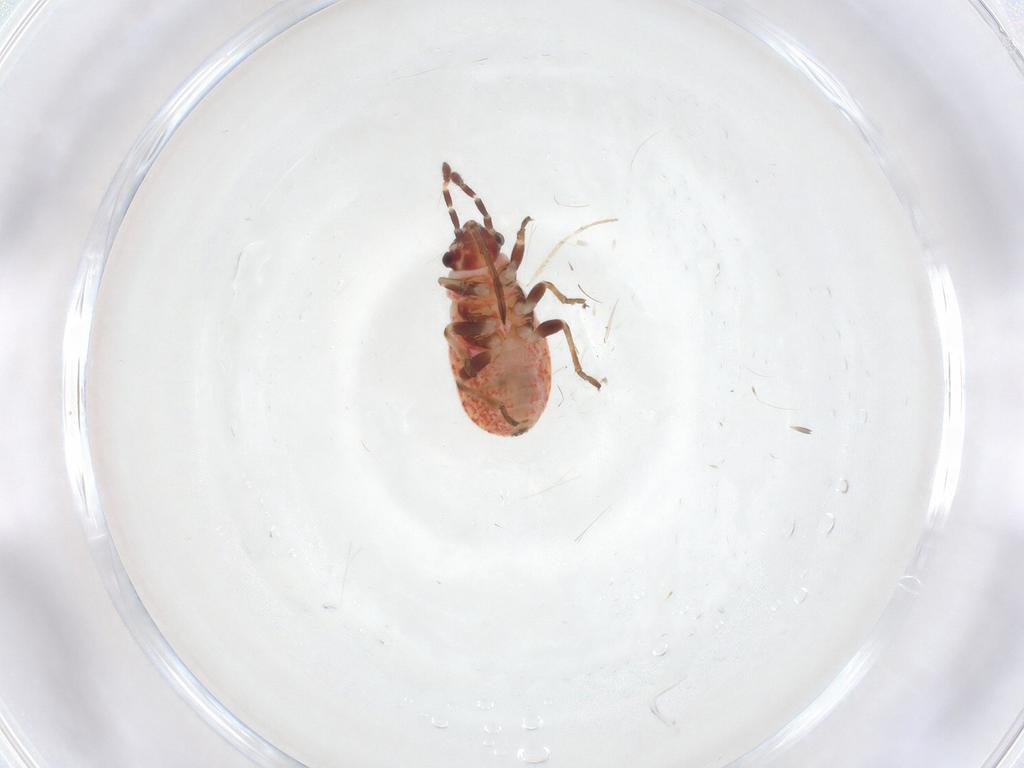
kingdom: Animalia
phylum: Arthropoda
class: Insecta
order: Hemiptera
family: Lygaeidae
